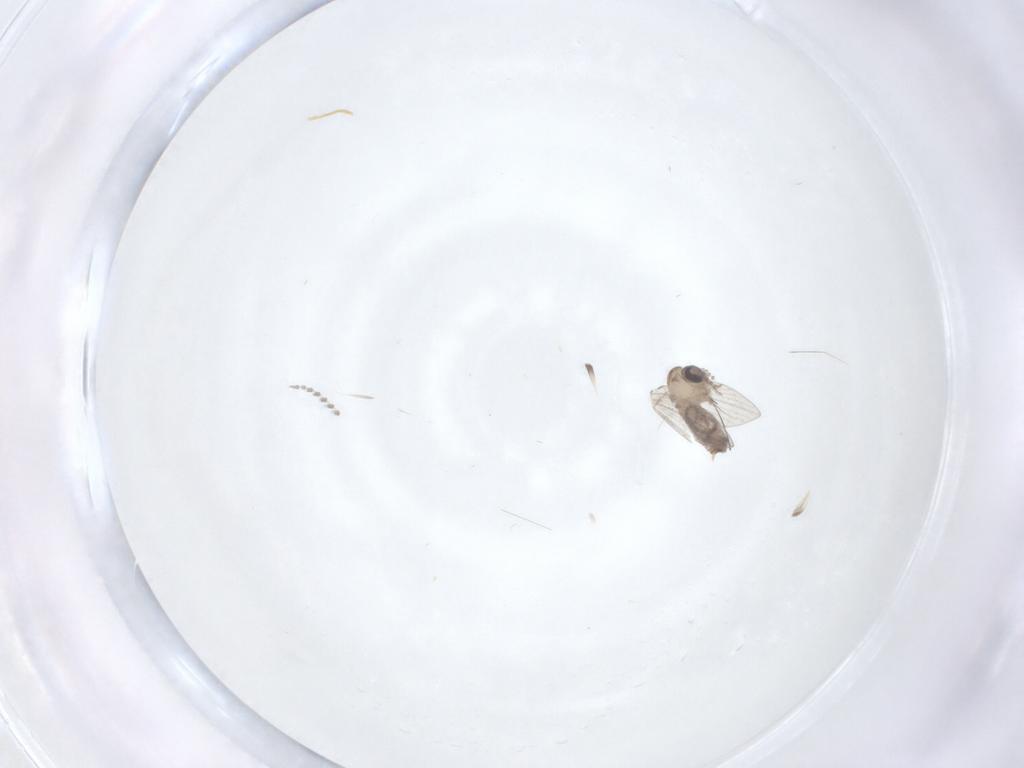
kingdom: Animalia
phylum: Arthropoda
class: Insecta
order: Diptera
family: Psychodidae
